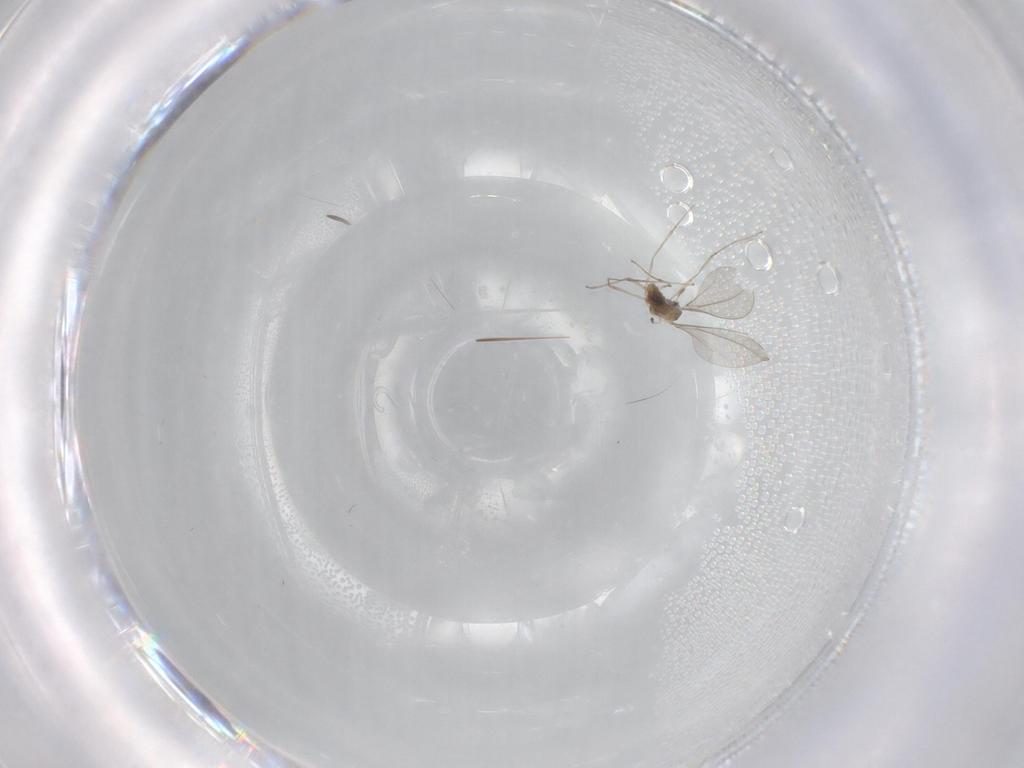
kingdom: Animalia
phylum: Arthropoda
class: Insecta
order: Diptera
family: Cecidomyiidae
